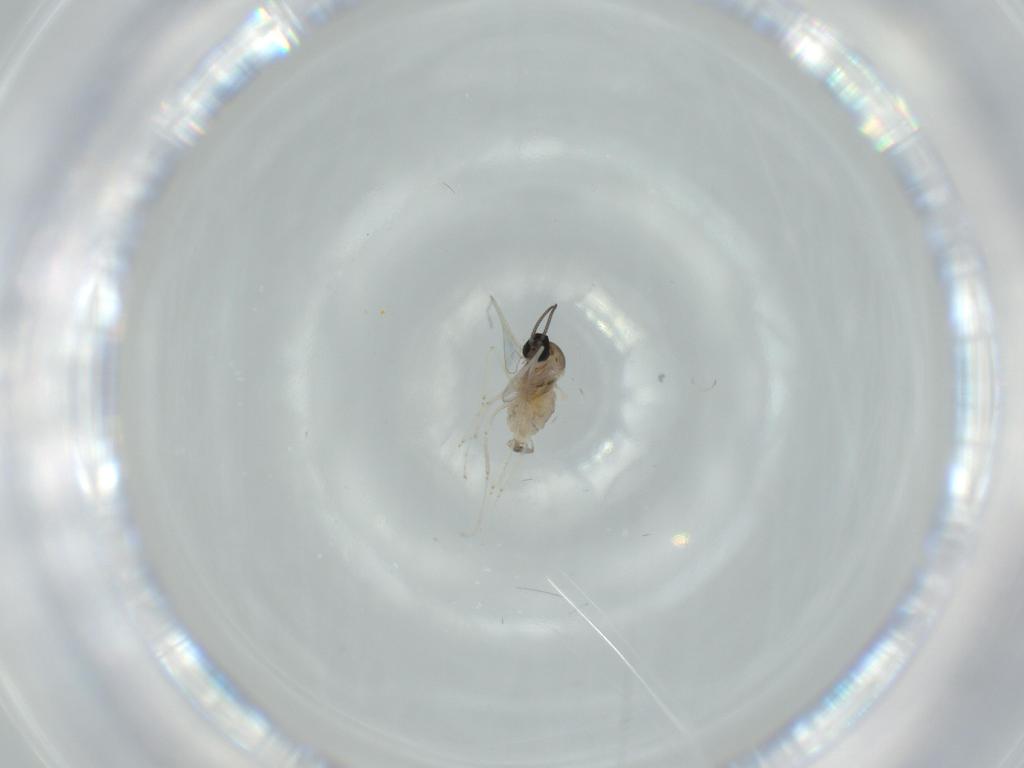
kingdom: Animalia
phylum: Arthropoda
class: Insecta
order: Diptera
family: Cecidomyiidae
